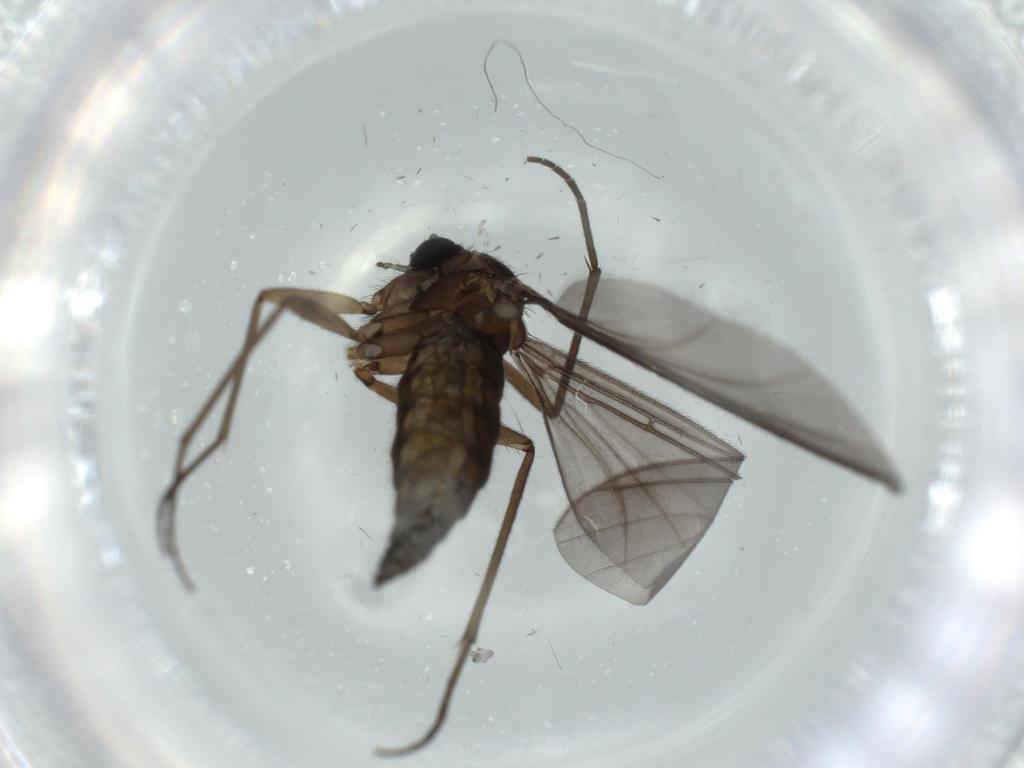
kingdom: Animalia
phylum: Arthropoda
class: Insecta
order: Diptera
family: Sciaridae
